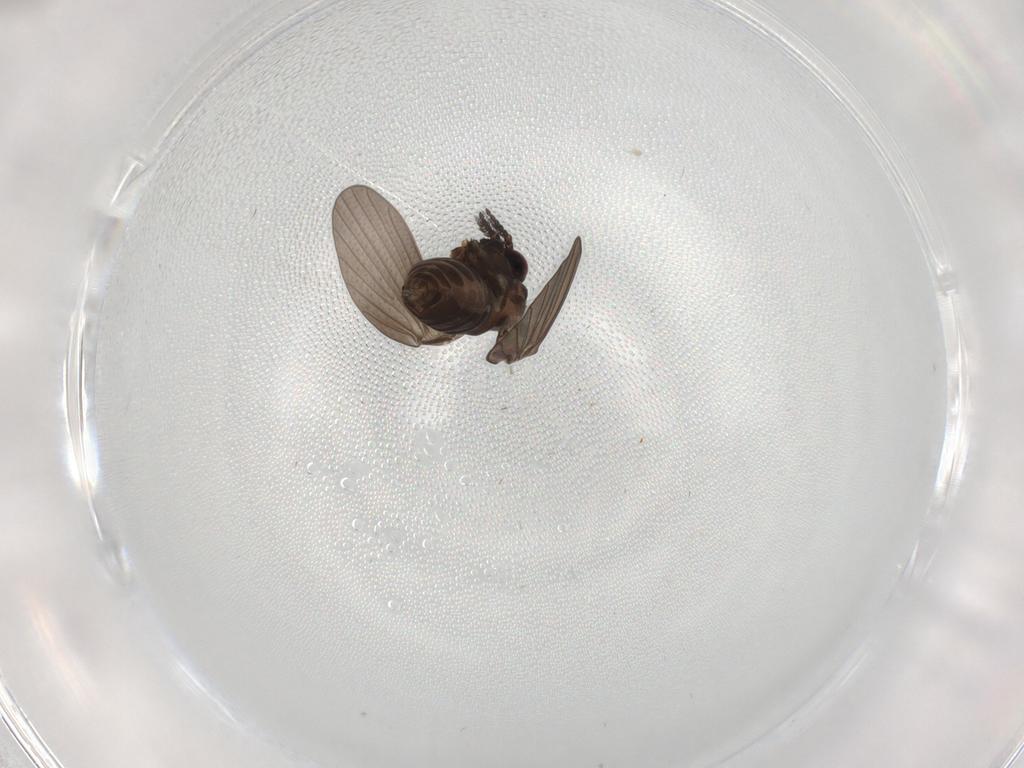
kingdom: Animalia
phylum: Arthropoda
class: Insecta
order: Diptera
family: Psychodidae
